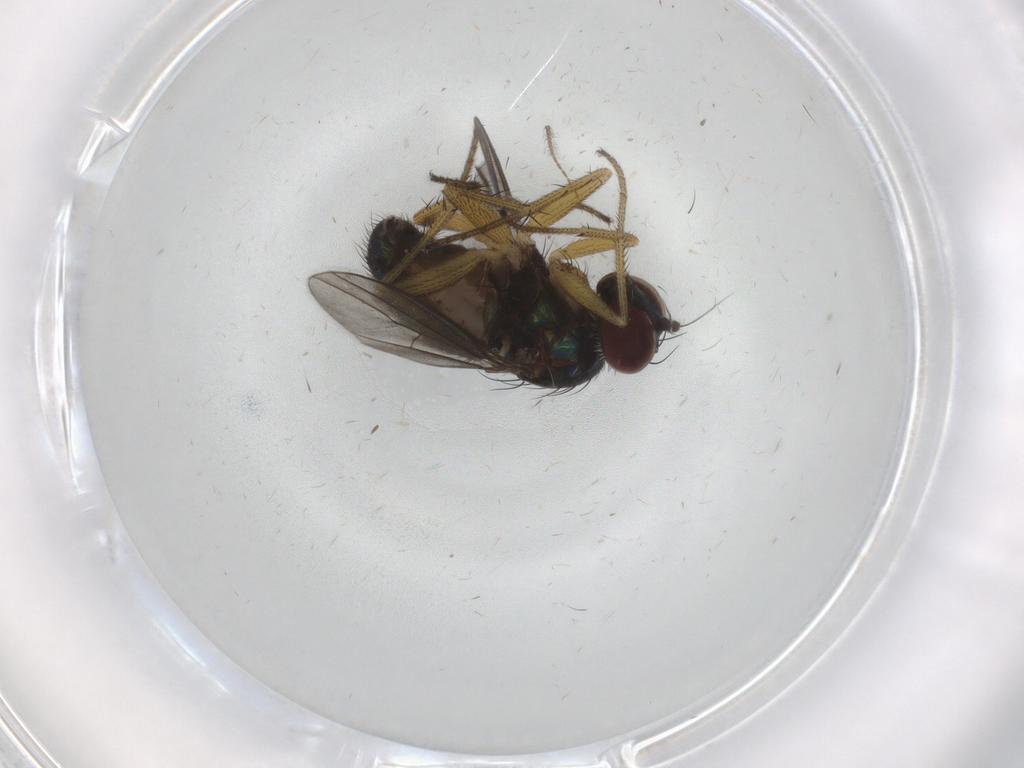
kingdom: Animalia
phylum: Arthropoda
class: Insecta
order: Diptera
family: Dolichopodidae
